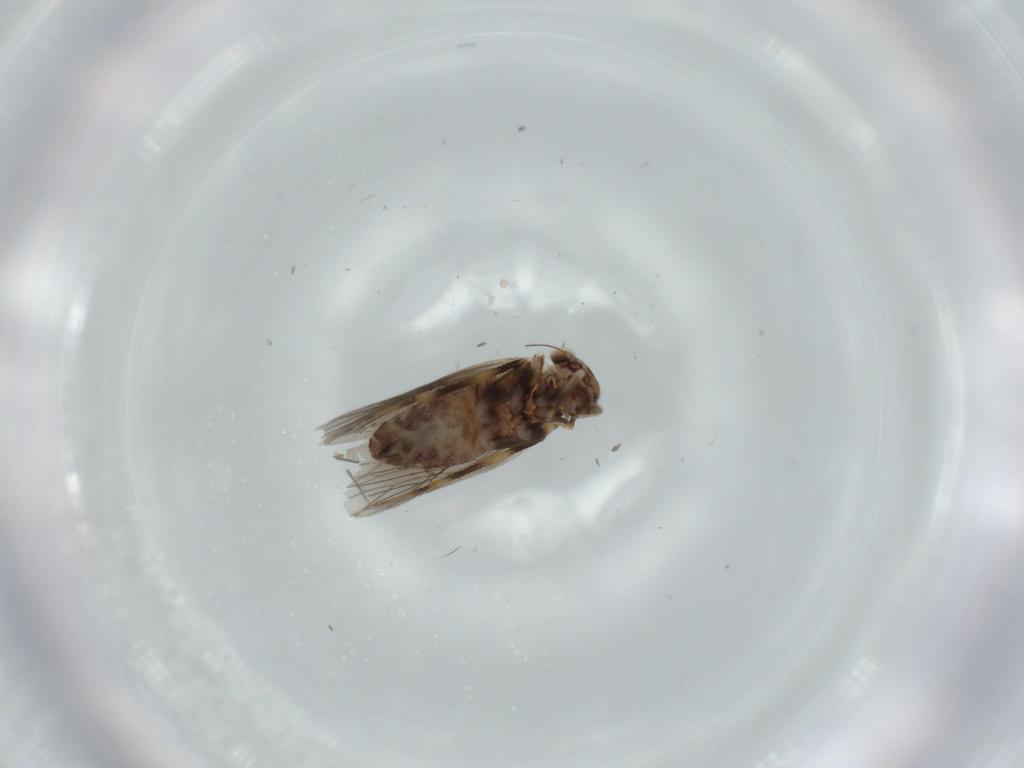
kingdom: Animalia
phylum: Arthropoda
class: Insecta
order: Psocodea
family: Lepidopsocidae
